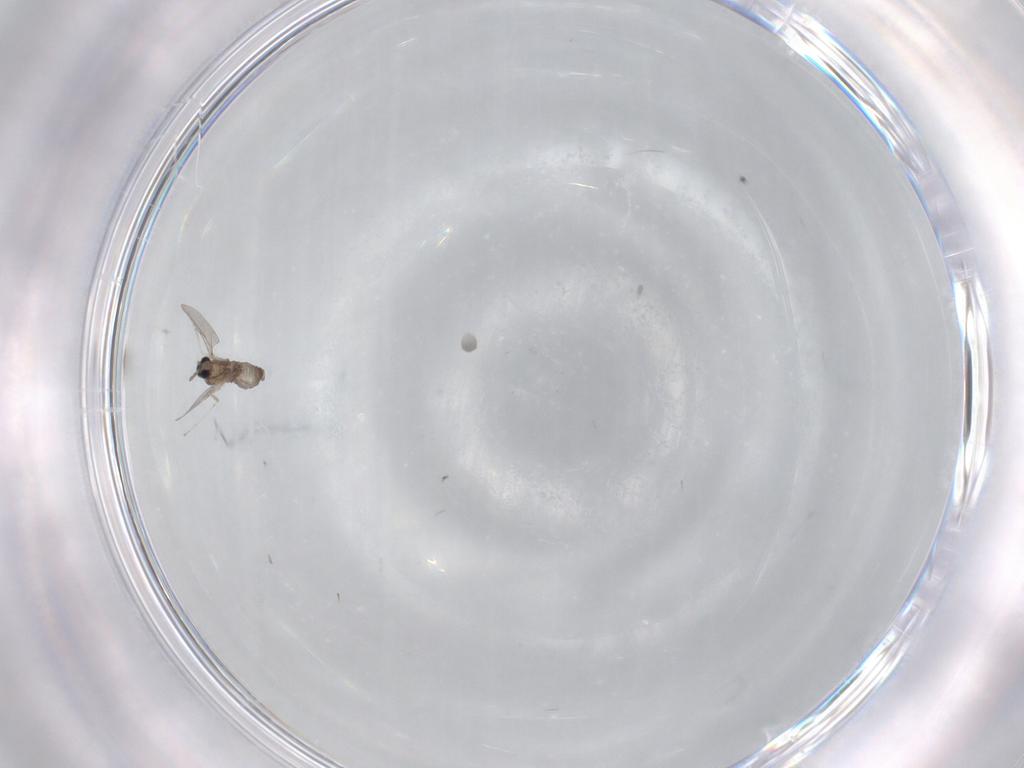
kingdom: Animalia
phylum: Arthropoda
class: Insecta
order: Diptera
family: Cecidomyiidae
